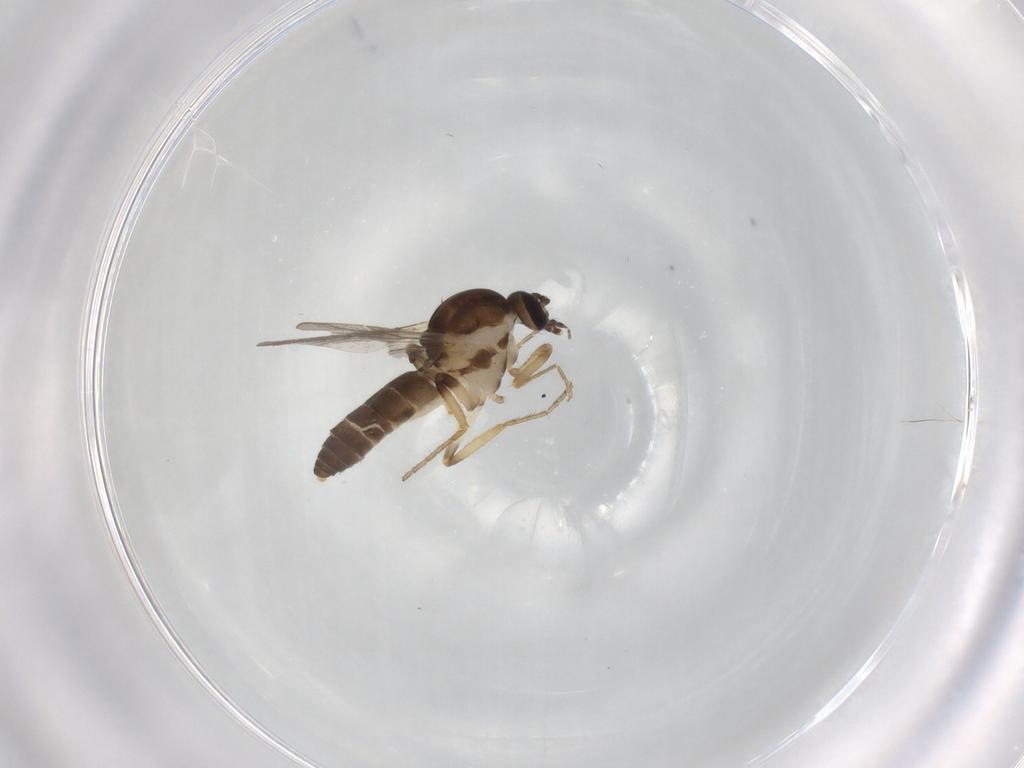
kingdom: Animalia
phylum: Arthropoda
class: Insecta
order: Diptera
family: Ceratopogonidae
